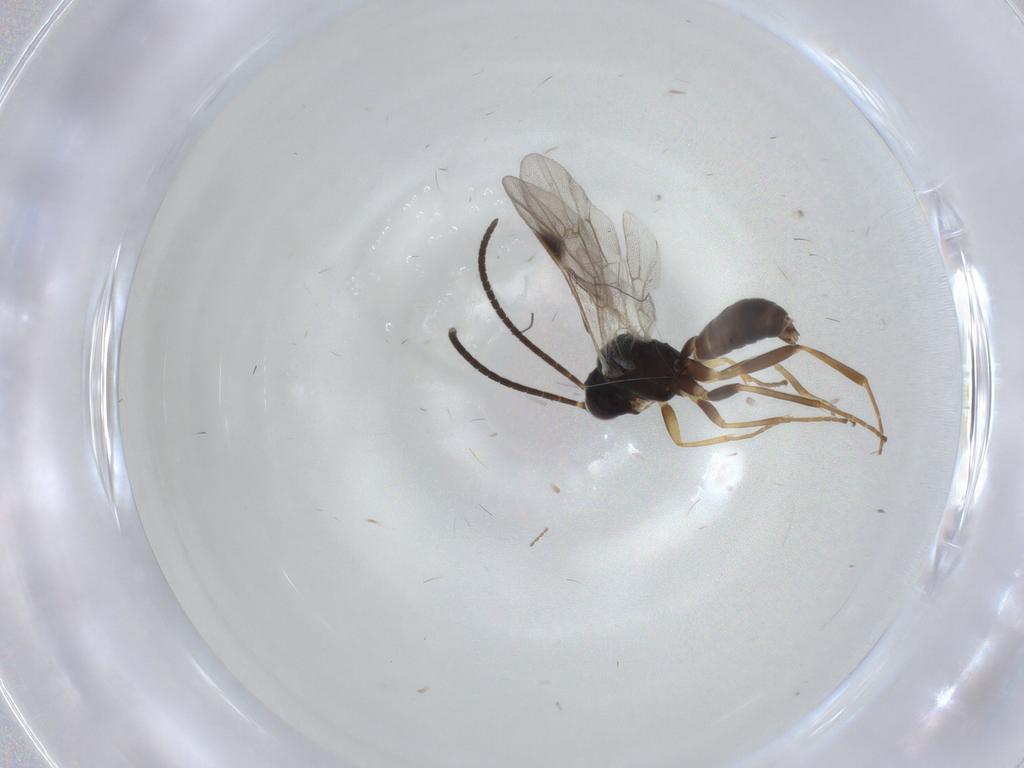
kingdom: Animalia
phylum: Arthropoda
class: Insecta
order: Hymenoptera
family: Ichneumonidae
